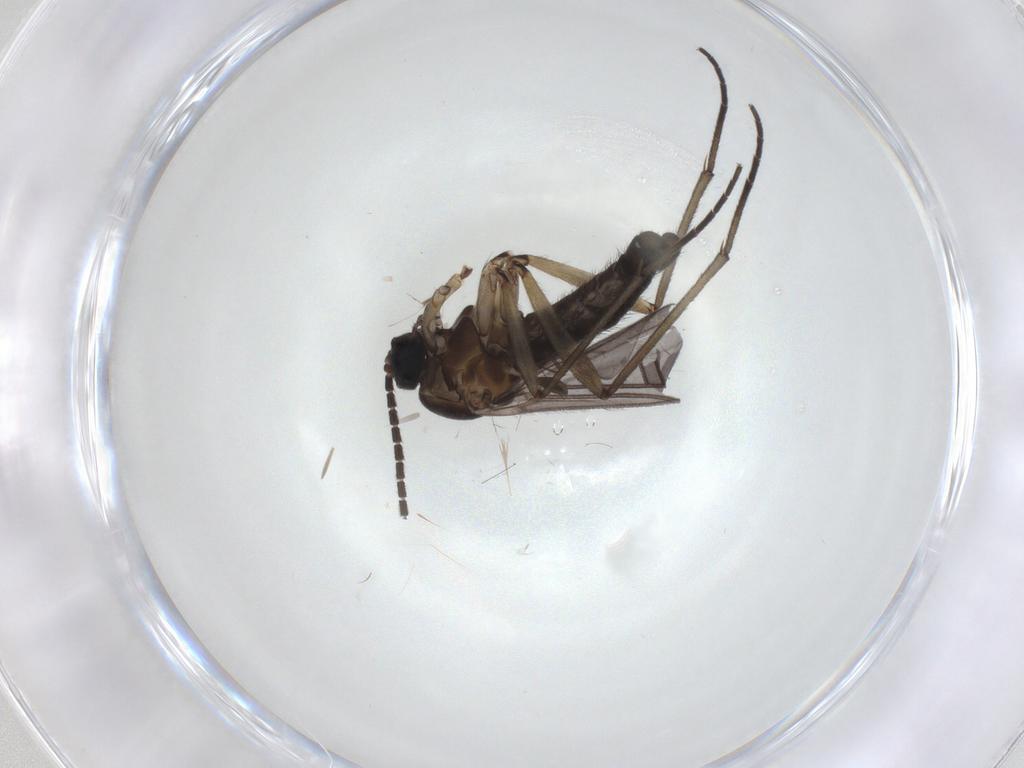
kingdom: Animalia
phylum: Arthropoda
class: Insecta
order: Diptera
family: Sciaridae
